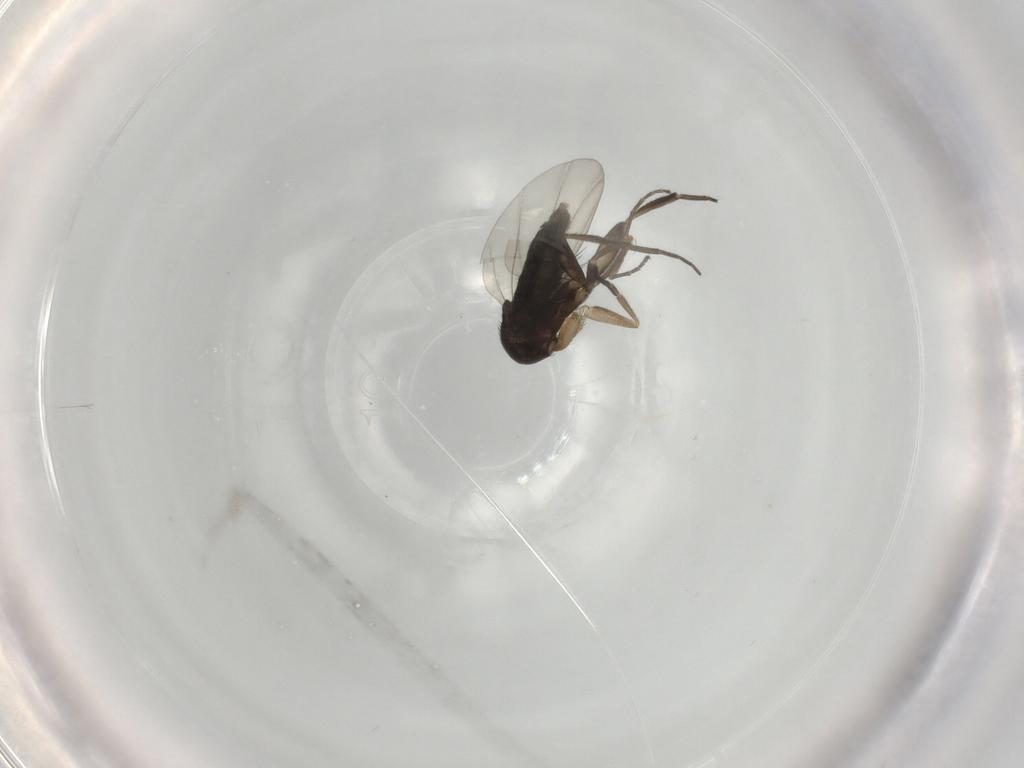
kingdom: Animalia
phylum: Arthropoda
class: Insecta
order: Diptera
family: Phoridae
